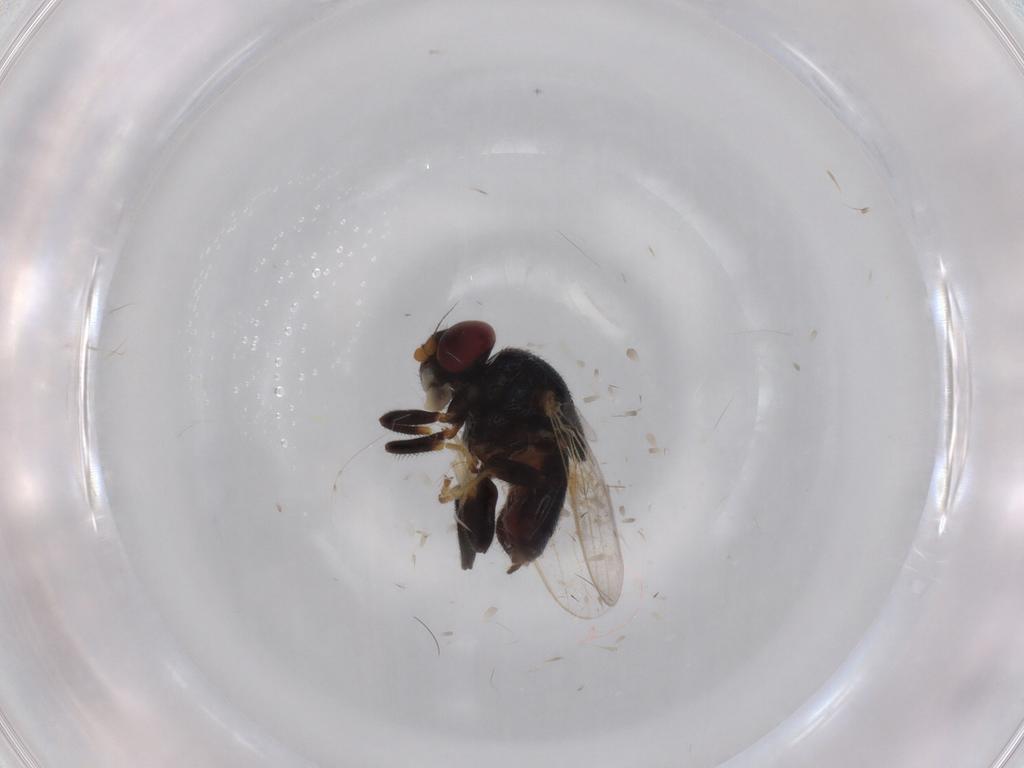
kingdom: Animalia
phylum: Arthropoda
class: Insecta
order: Diptera
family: Chloropidae
